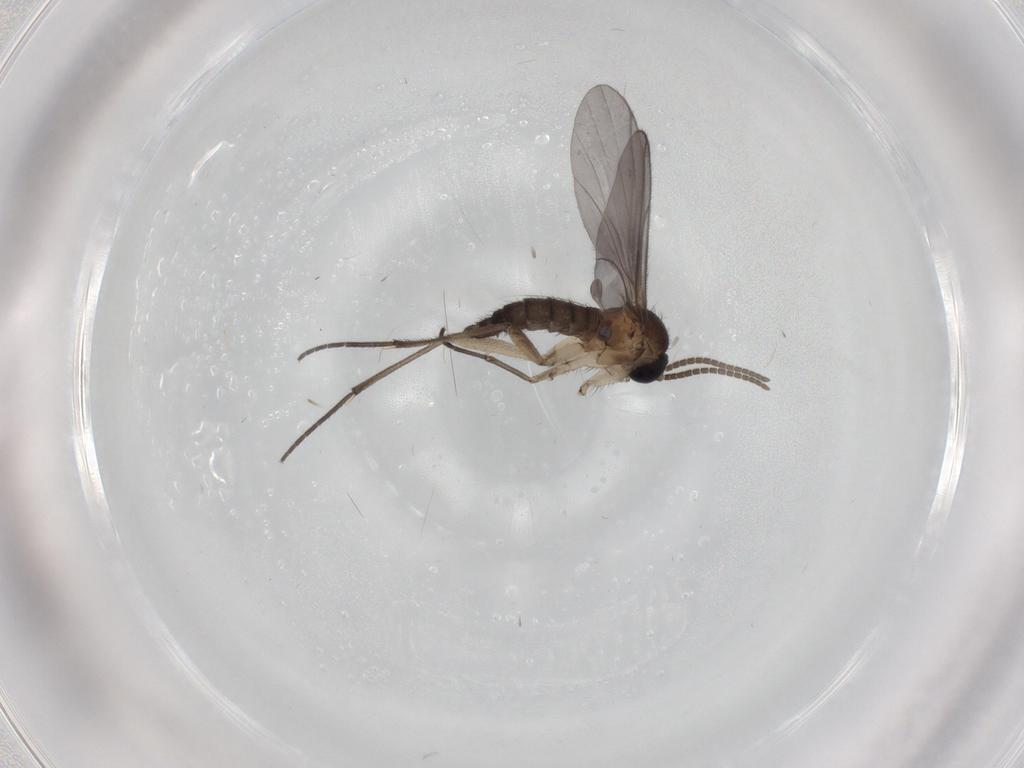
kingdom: Animalia
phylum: Arthropoda
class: Insecta
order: Diptera
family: Sciaridae
